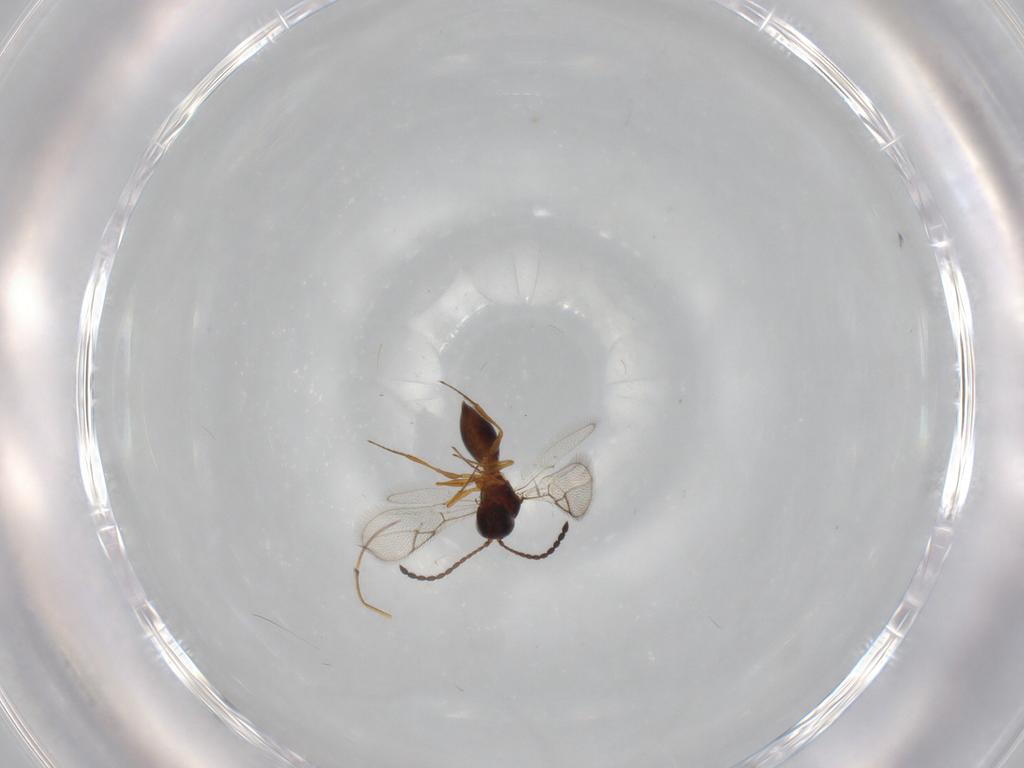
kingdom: Animalia
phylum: Arthropoda
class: Insecta
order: Hymenoptera
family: Figitidae
